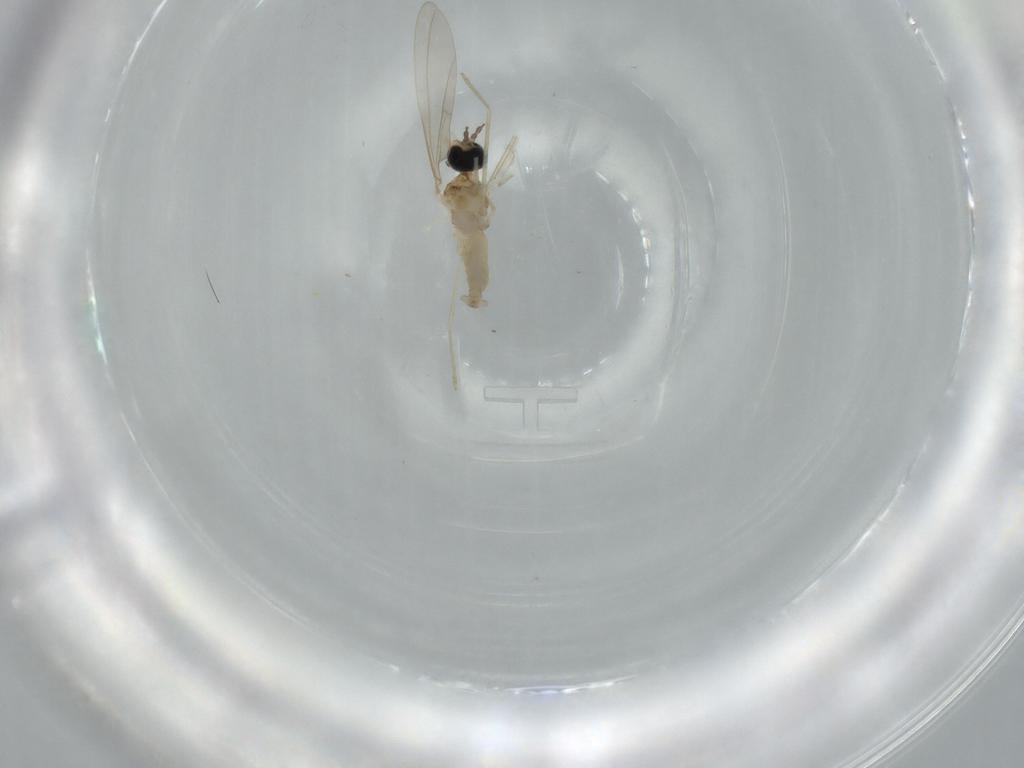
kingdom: Animalia
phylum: Arthropoda
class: Insecta
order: Diptera
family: Cecidomyiidae
